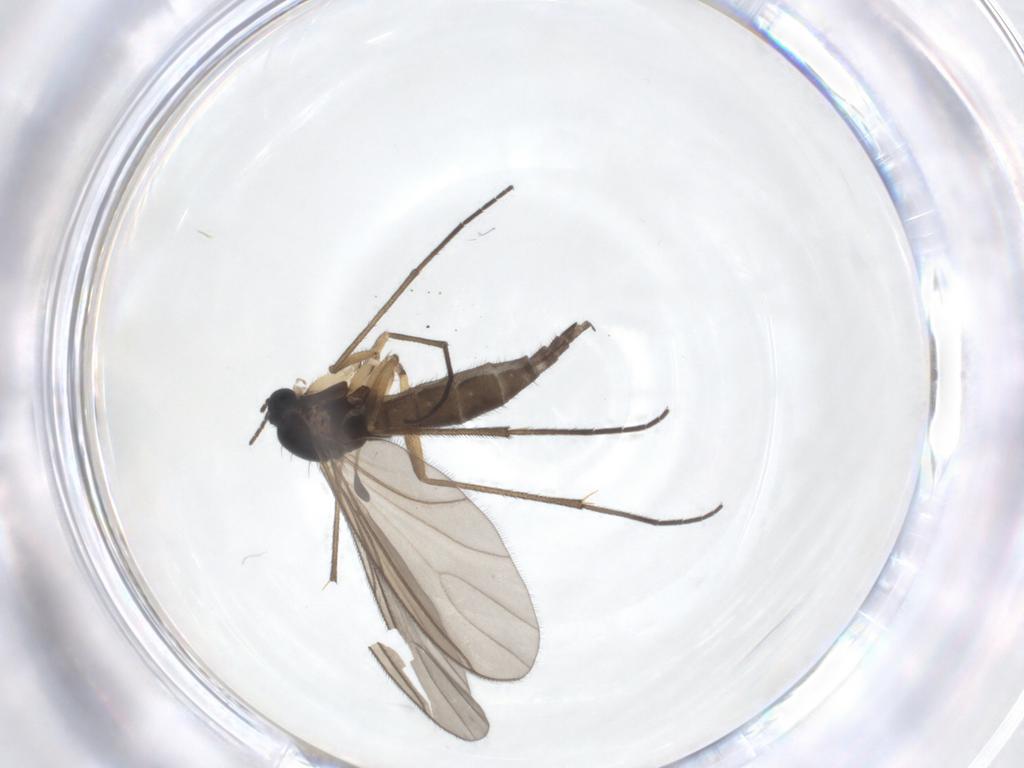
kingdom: Animalia
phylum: Arthropoda
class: Insecta
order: Diptera
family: Sciaridae
